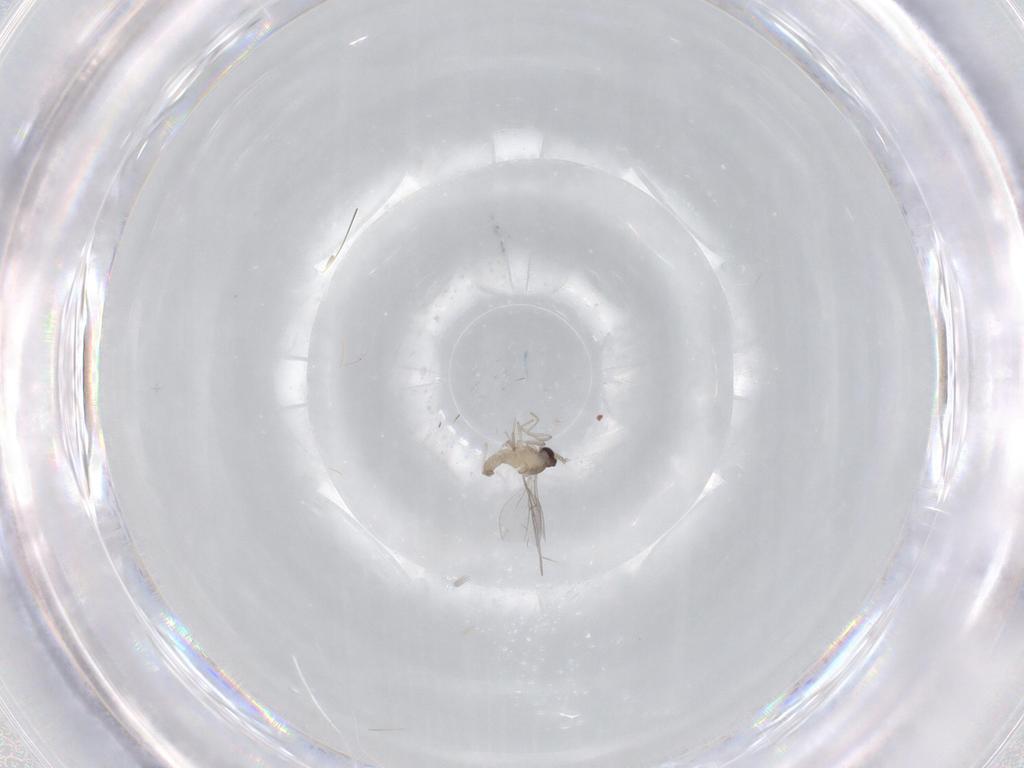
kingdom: Animalia
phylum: Arthropoda
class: Insecta
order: Diptera
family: Cecidomyiidae
